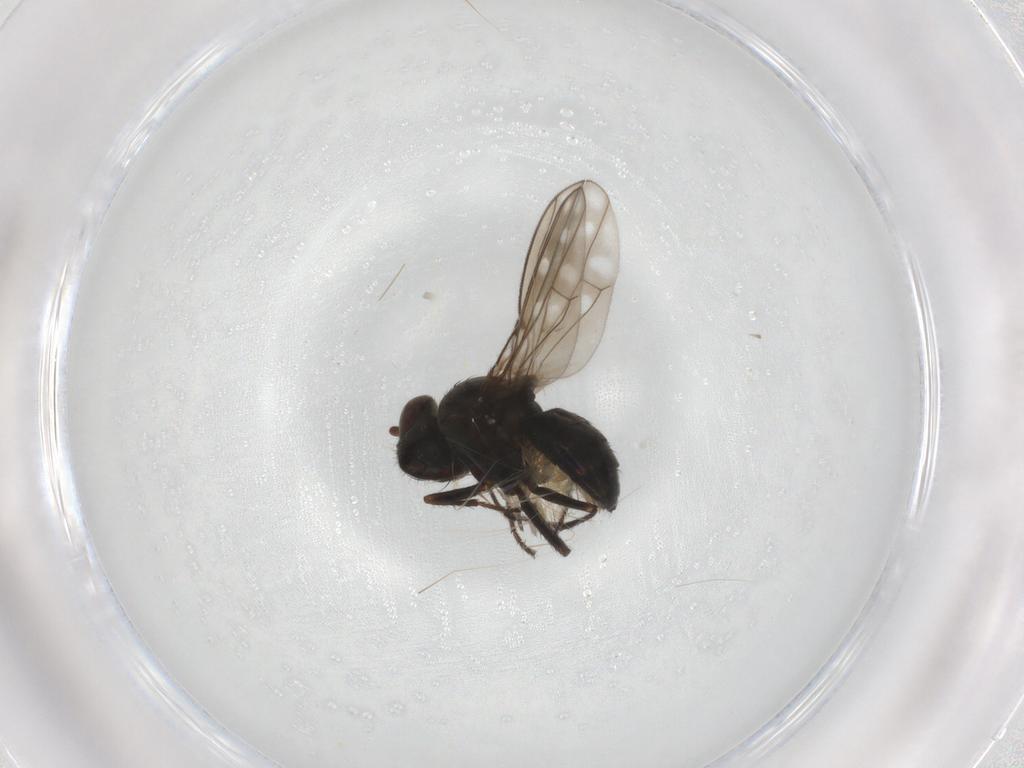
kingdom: Animalia
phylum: Arthropoda
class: Insecta
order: Diptera
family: Ephydridae
